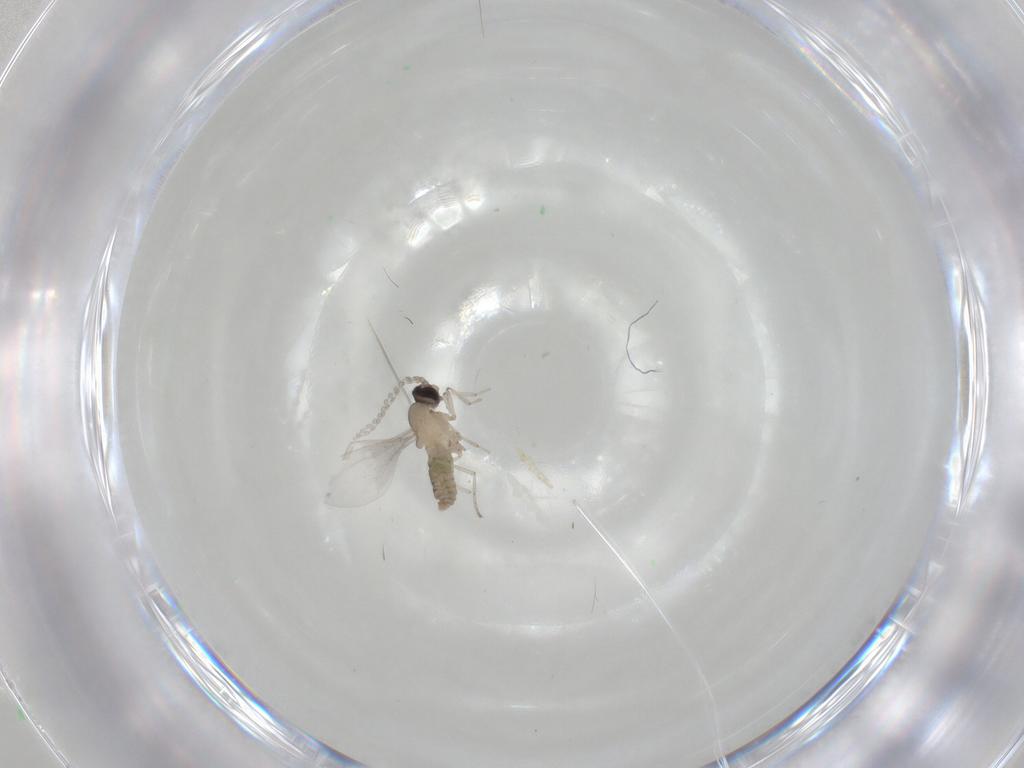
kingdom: Animalia
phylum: Arthropoda
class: Insecta
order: Diptera
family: Cecidomyiidae
